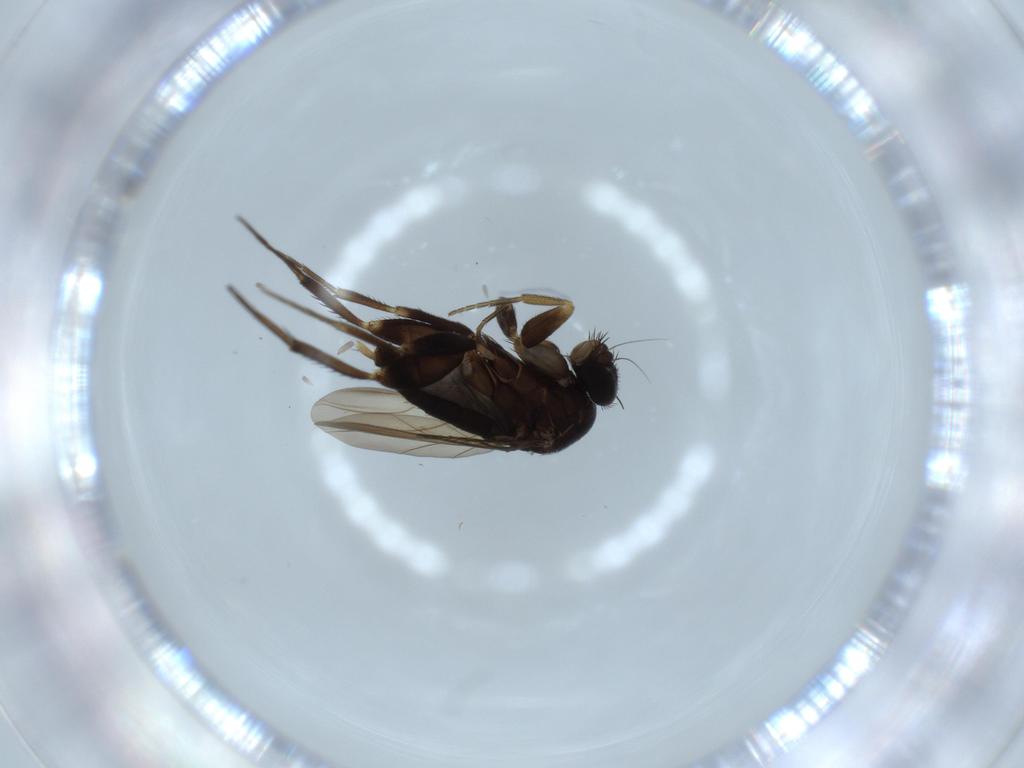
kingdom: Animalia
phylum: Arthropoda
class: Insecta
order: Diptera
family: Phoridae
